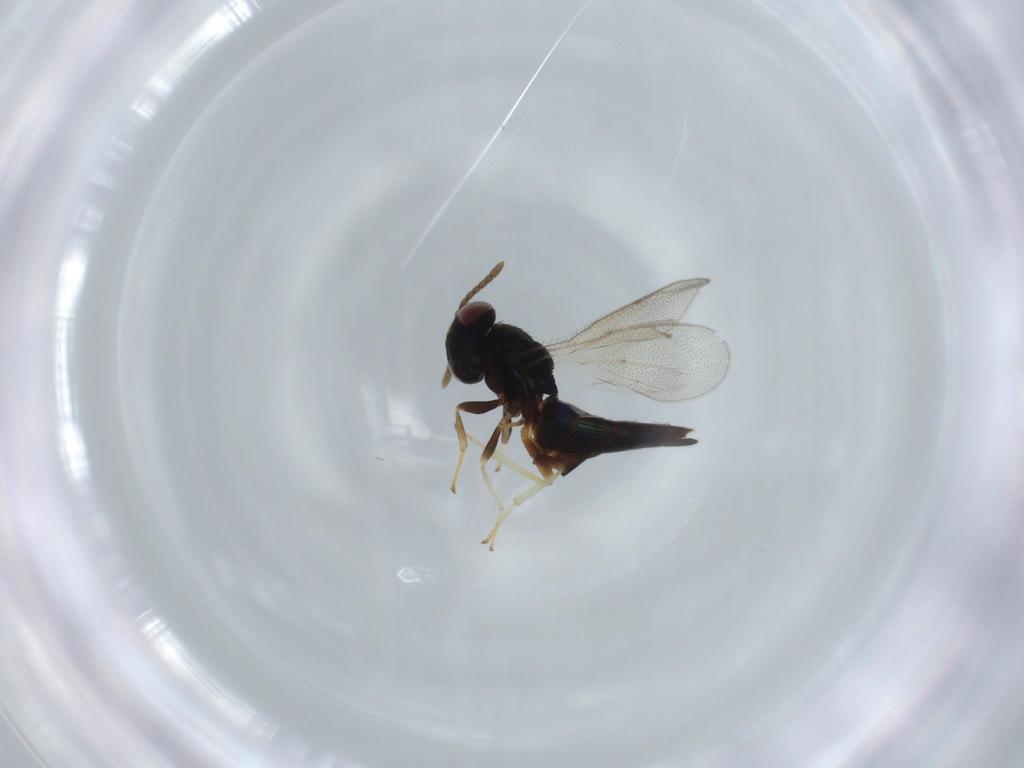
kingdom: Animalia
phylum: Arthropoda
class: Insecta
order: Hymenoptera
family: Pteromalidae
